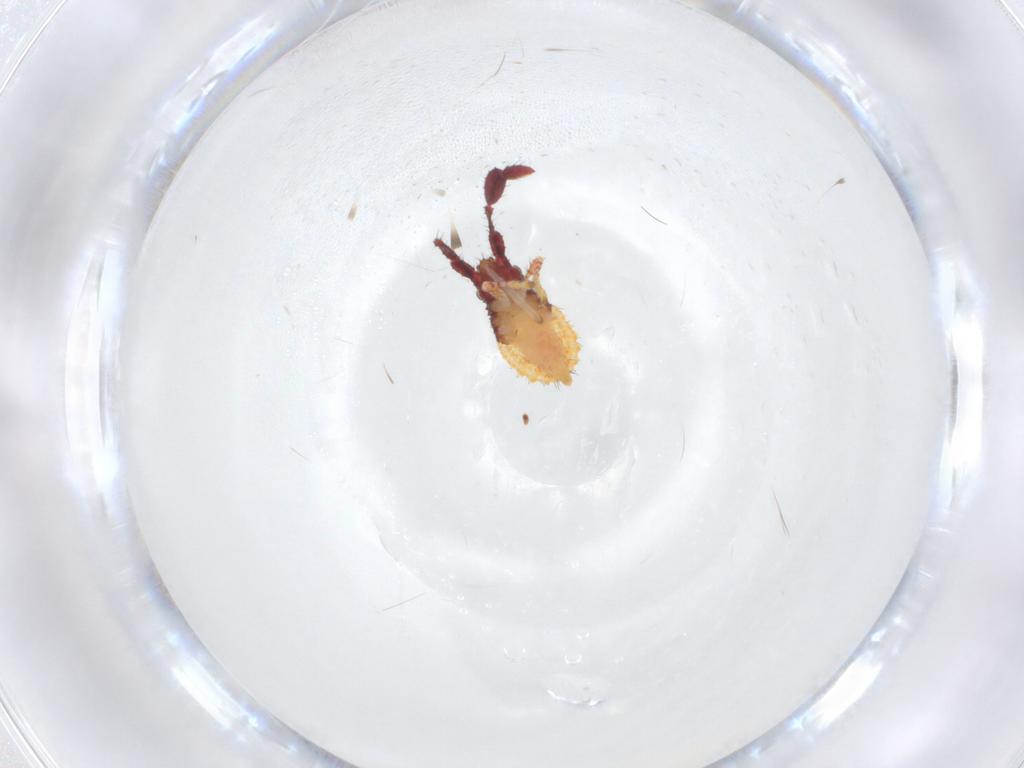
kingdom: Animalia
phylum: Arthropoda
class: Insecta
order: Hemiptera
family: Coreidae
